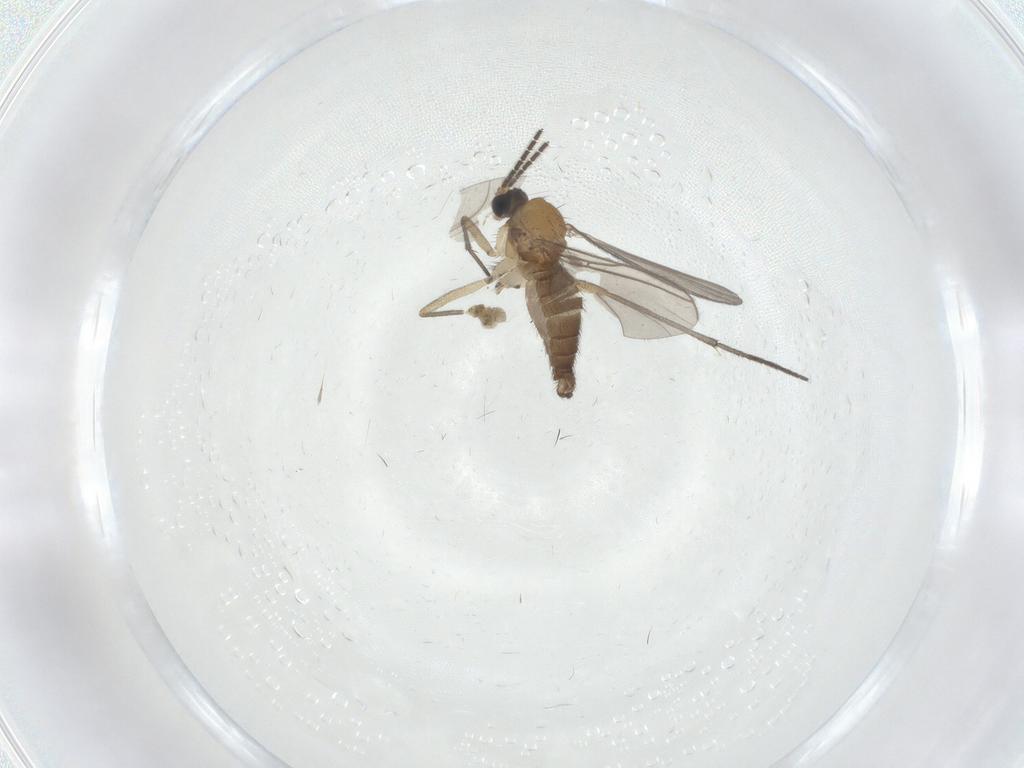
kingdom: Animalia
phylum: Arthropoda
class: Insecta
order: Diptera
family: Sciaridae
